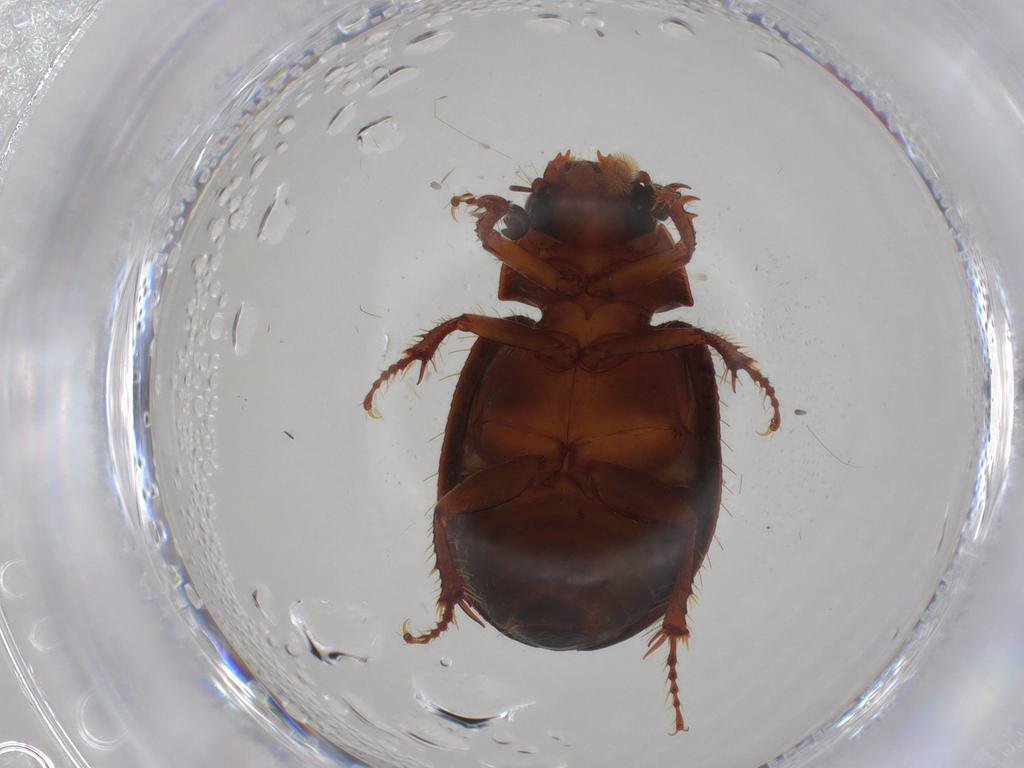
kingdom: Animalia
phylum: Arthropoda
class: Insecta
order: Coleoptera
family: Hybosoridae
